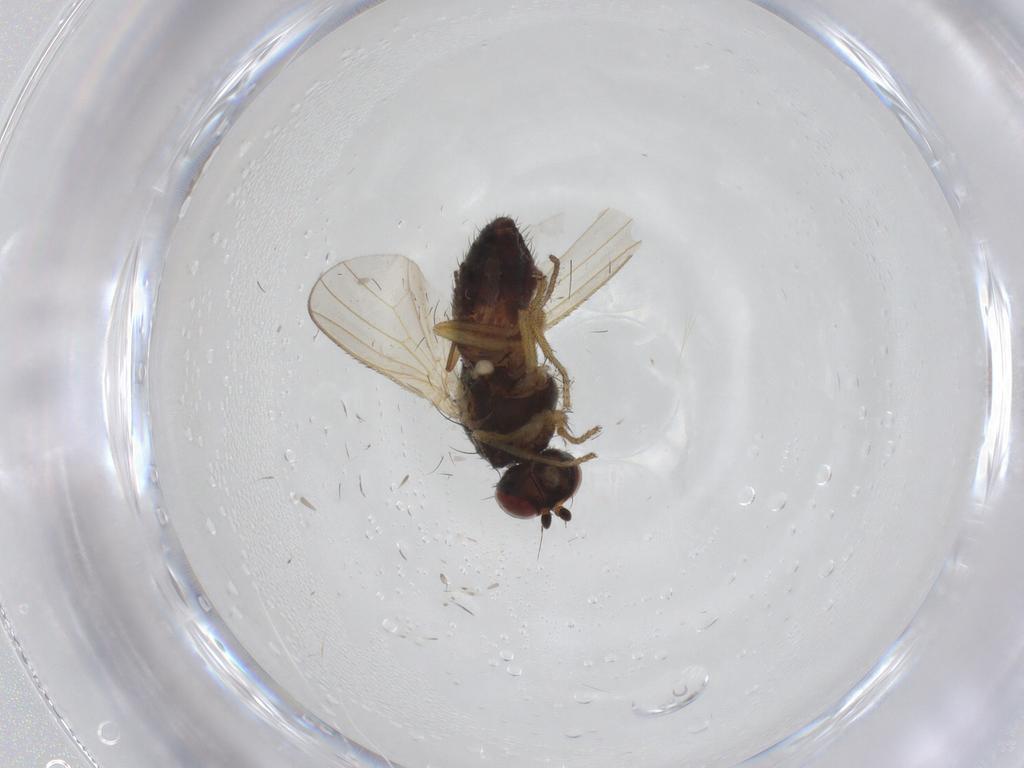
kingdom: Animalia
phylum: Arthropoda
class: Insecta
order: Diptera
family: Heleomyzidae
